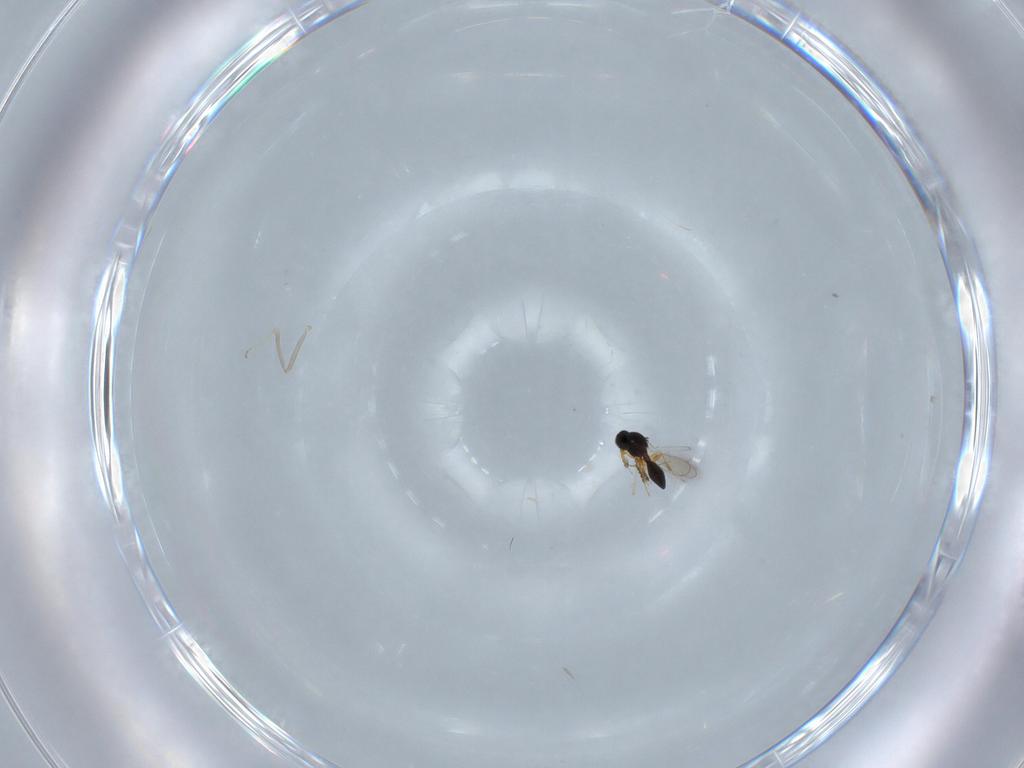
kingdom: Animalia
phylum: Arthropoda
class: Insecta
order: Hymenoptera
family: Platygastridae
